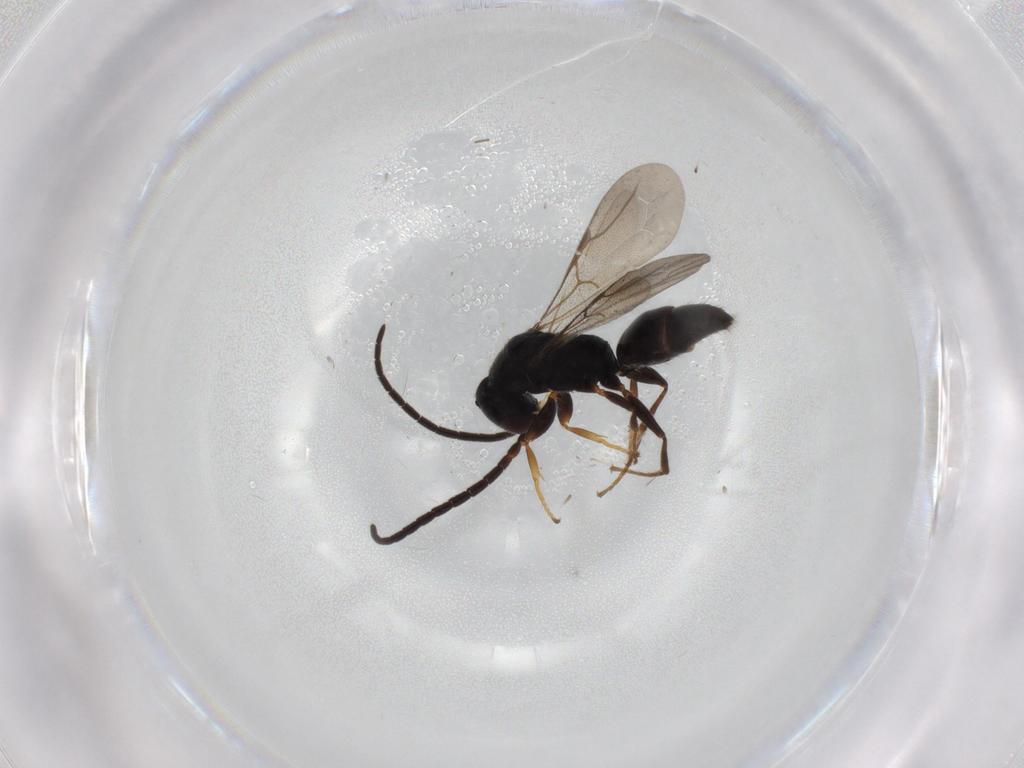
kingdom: Animalia
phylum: Arthropoda
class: Insecta
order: Hymenoptera
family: Bethylidae
